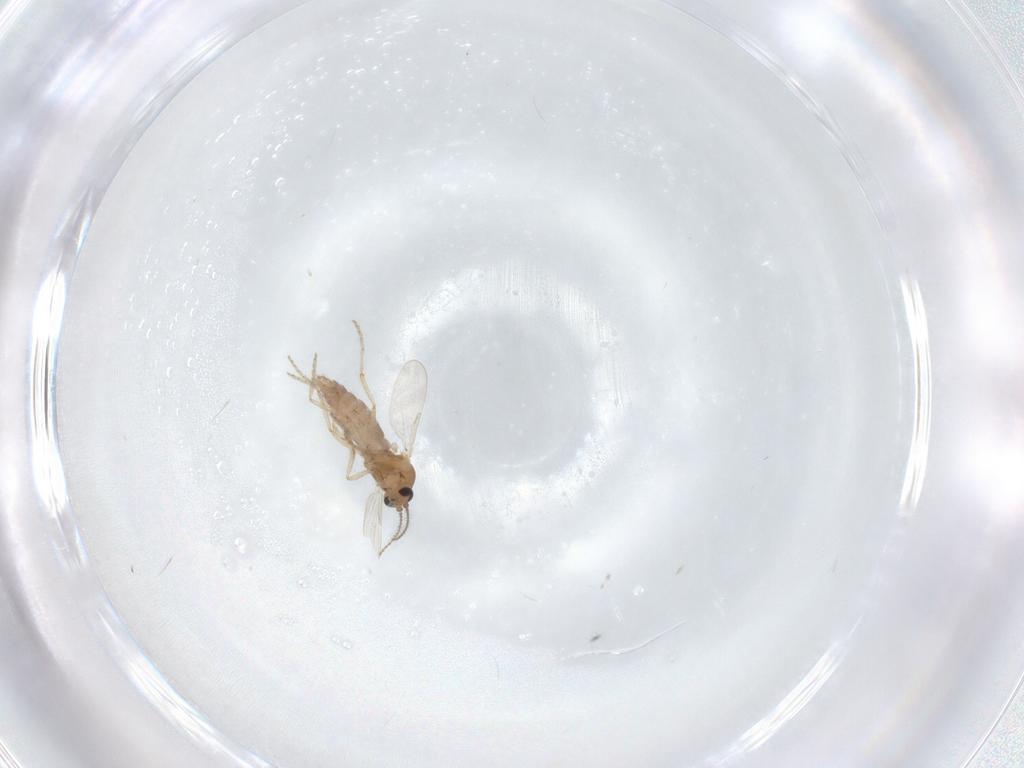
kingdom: Animalia
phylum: Arthropoda
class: Insecta
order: Diptera
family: Ceratopogonidae
